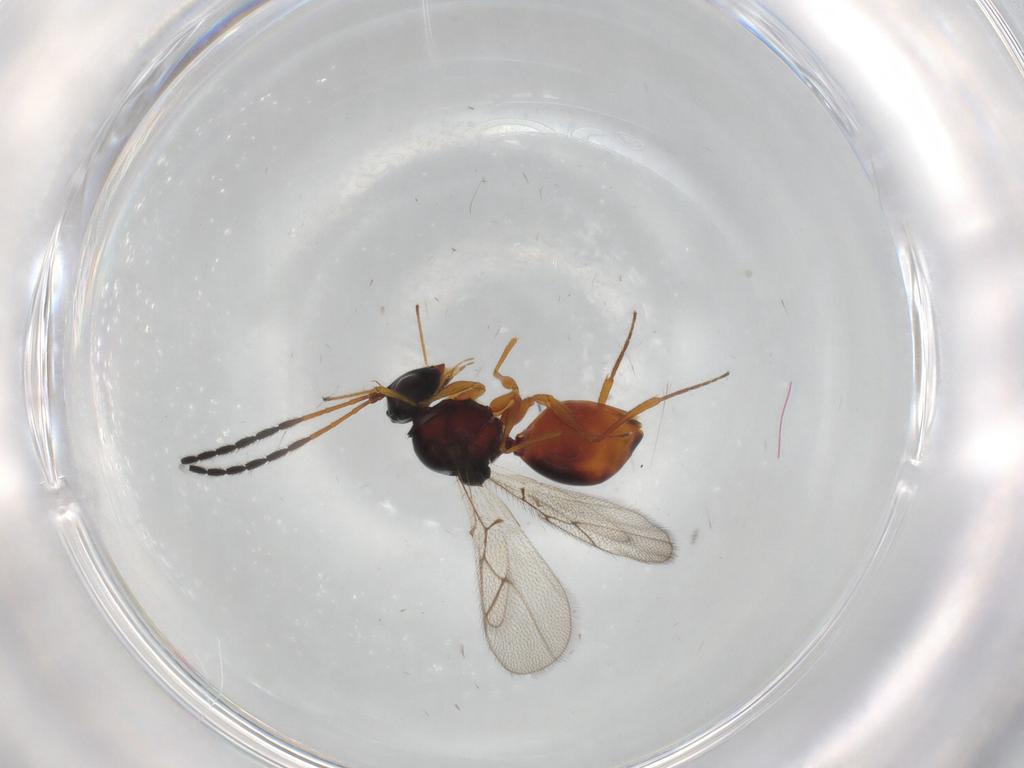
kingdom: Animalia
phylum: Arthropoda
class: Insecta
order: Hymenoptera
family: Figitidae
